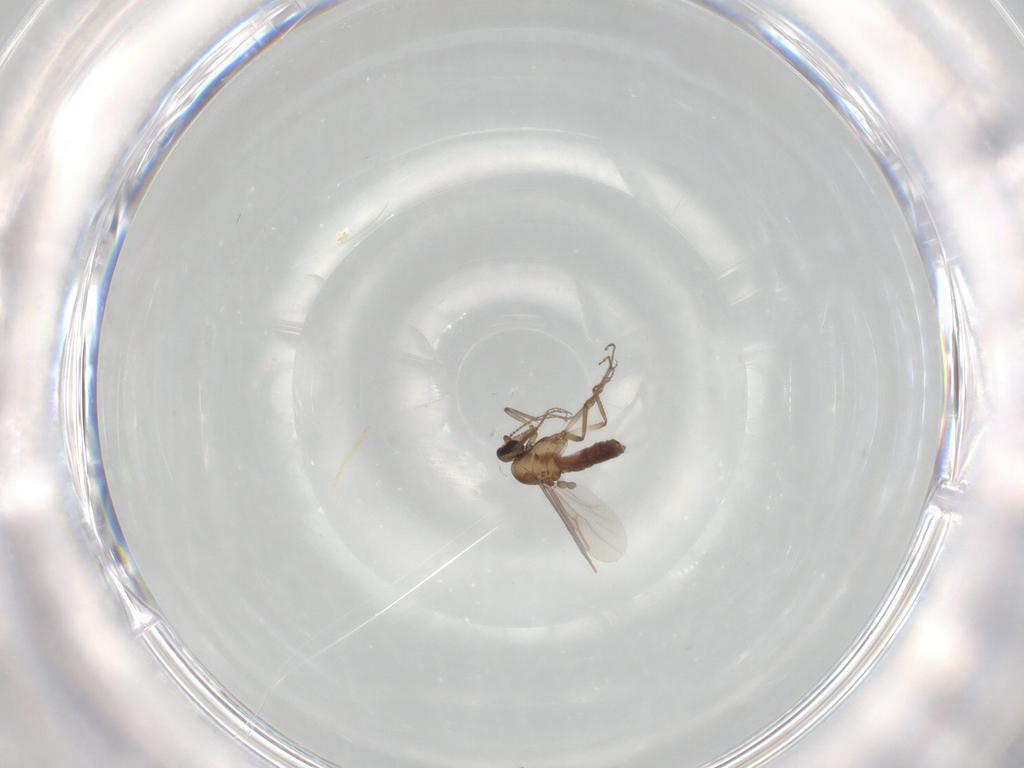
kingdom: Animalia
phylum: Arthropoda
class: Insecta
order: Diptera
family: Ceratopogonidae
